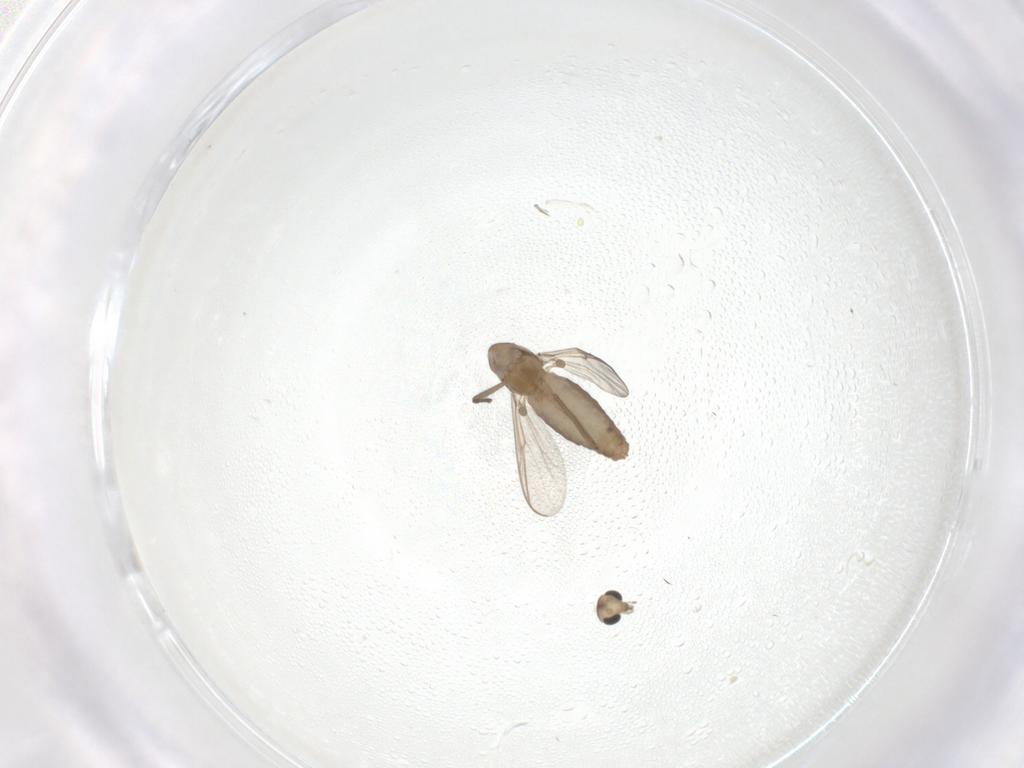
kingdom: Animalia
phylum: Arthropoda
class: Insecta
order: Diptera
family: Chironomidae
